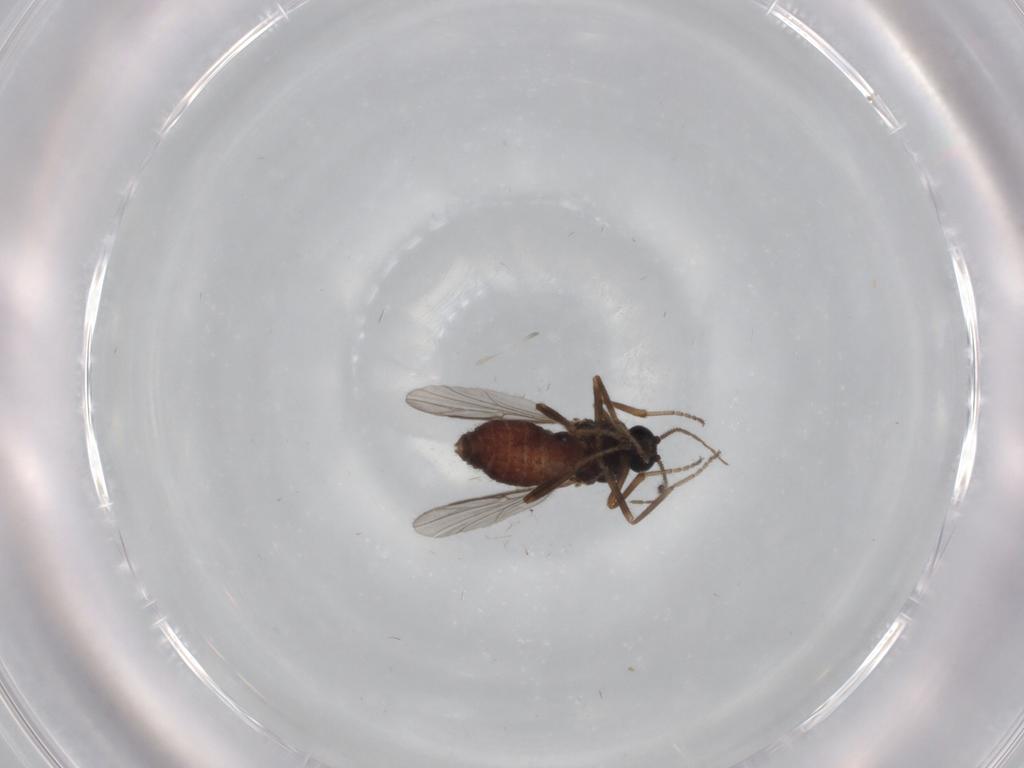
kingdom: Animalia
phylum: Arthropoda
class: Insecta
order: Diptera
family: Ceratopogonidae
